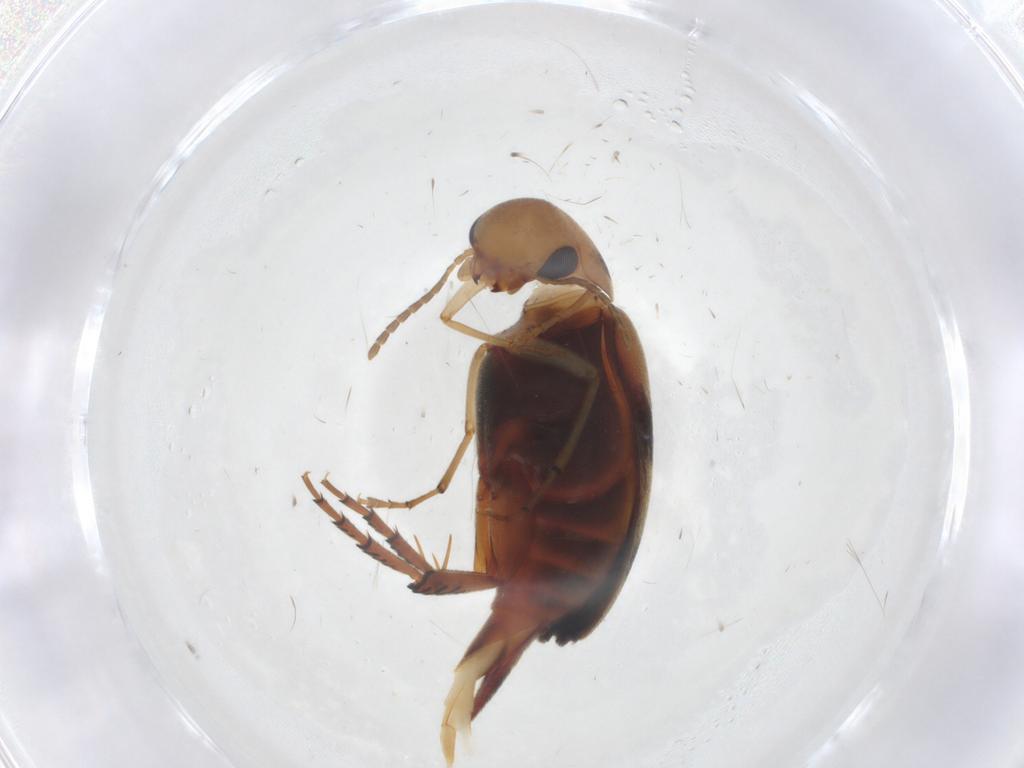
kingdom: Animalia
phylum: Arthropoda
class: Insecta
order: Coleoptera
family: Mordellidae
